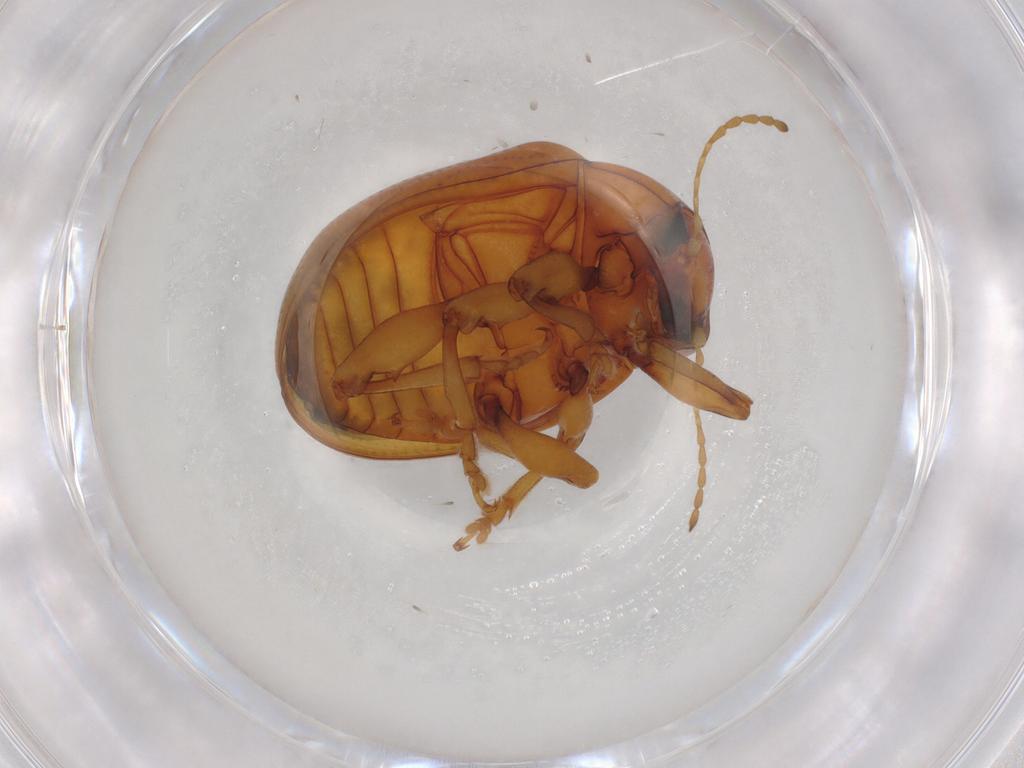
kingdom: Animalia
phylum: Arthropoda
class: Insecta
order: Coleoptera
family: Chrysomelidae
